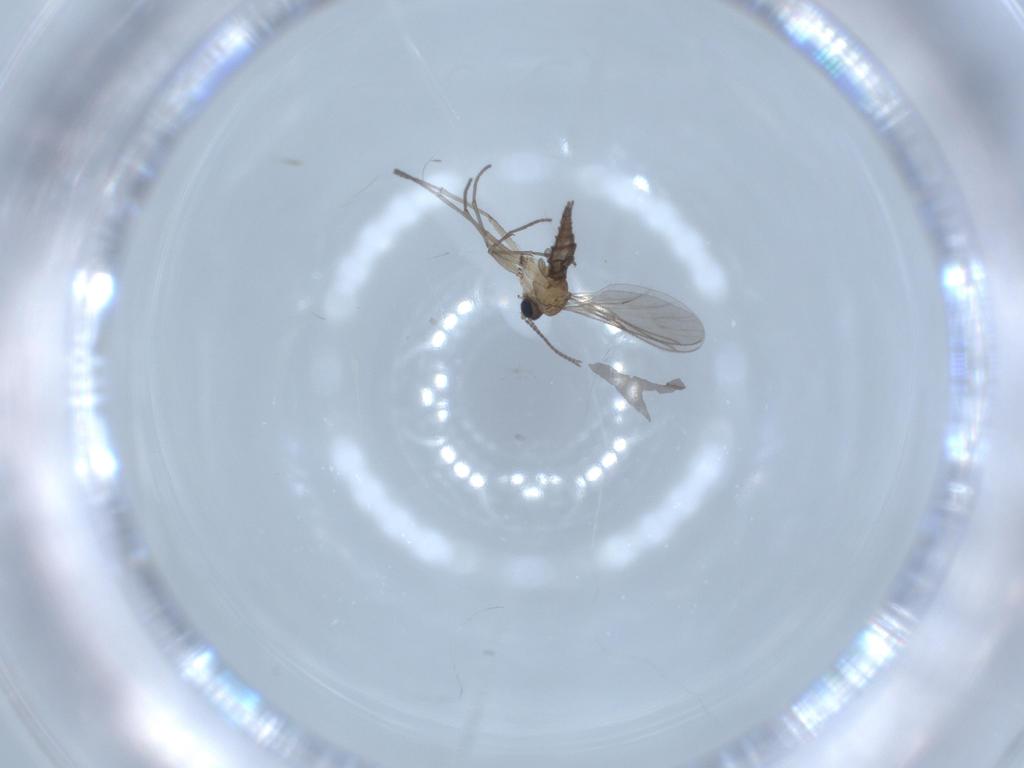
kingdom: Animalia
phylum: Arthropoda
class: Insecta
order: Diptera
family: Sciaridae
